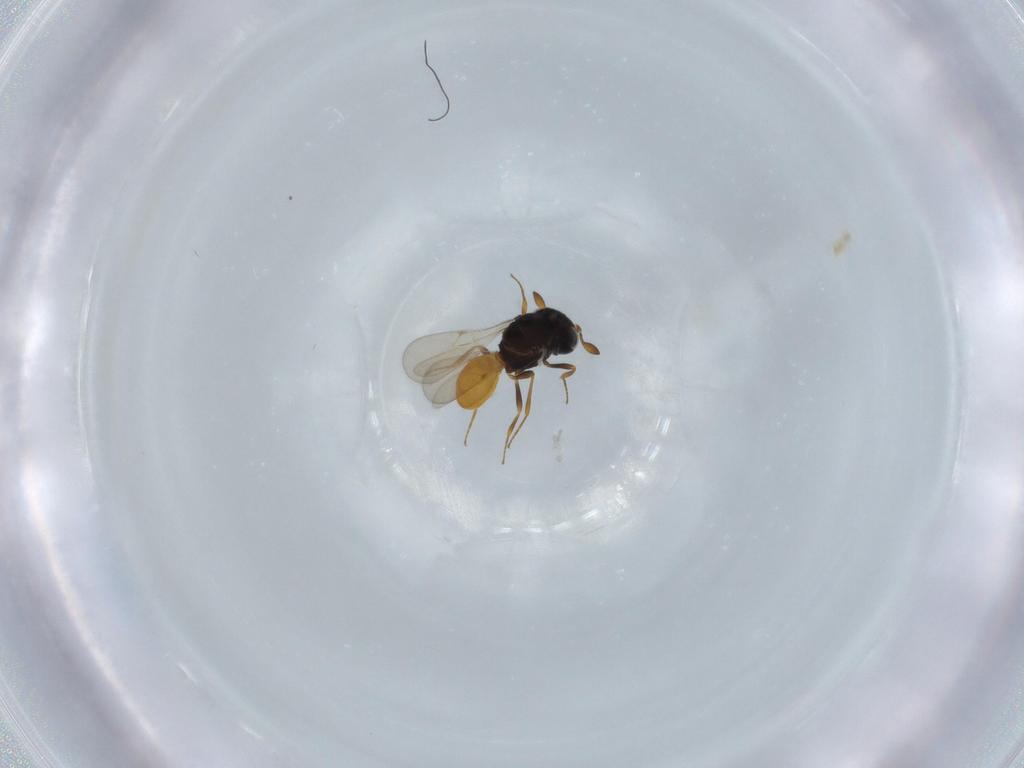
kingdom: Animalia
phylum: Arthropoda
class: Insecta
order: Hymenoptera
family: Scelionidae
